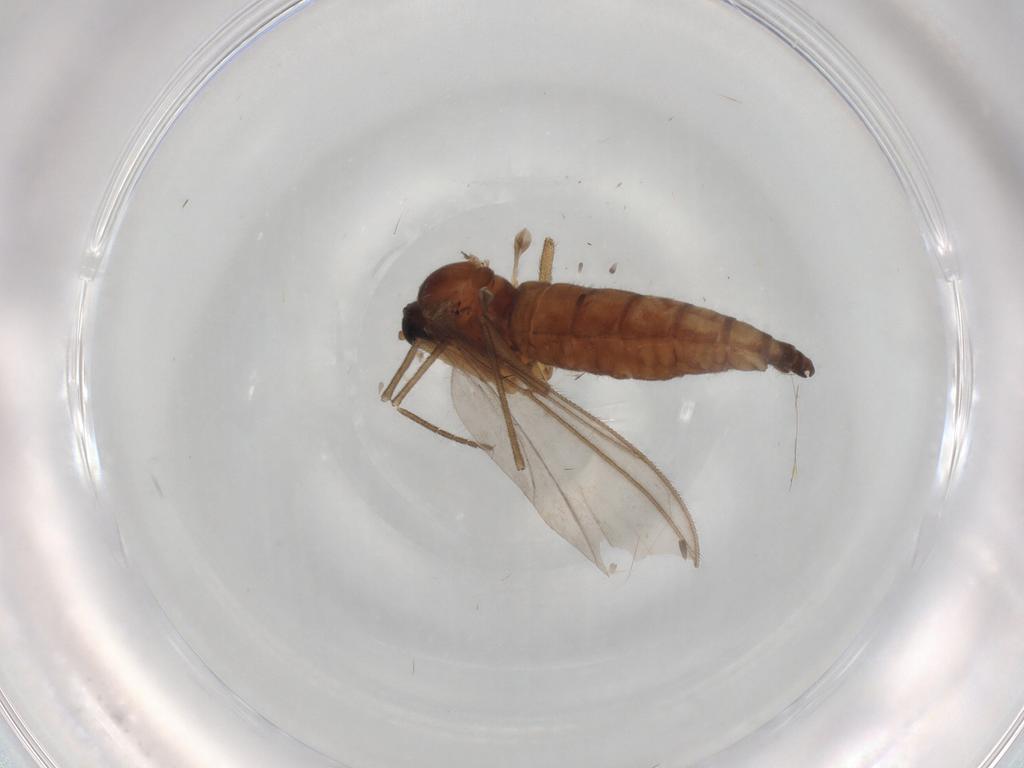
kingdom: Animalia
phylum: Arthropoda
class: Insecta
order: Diptera
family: Sciaridae
